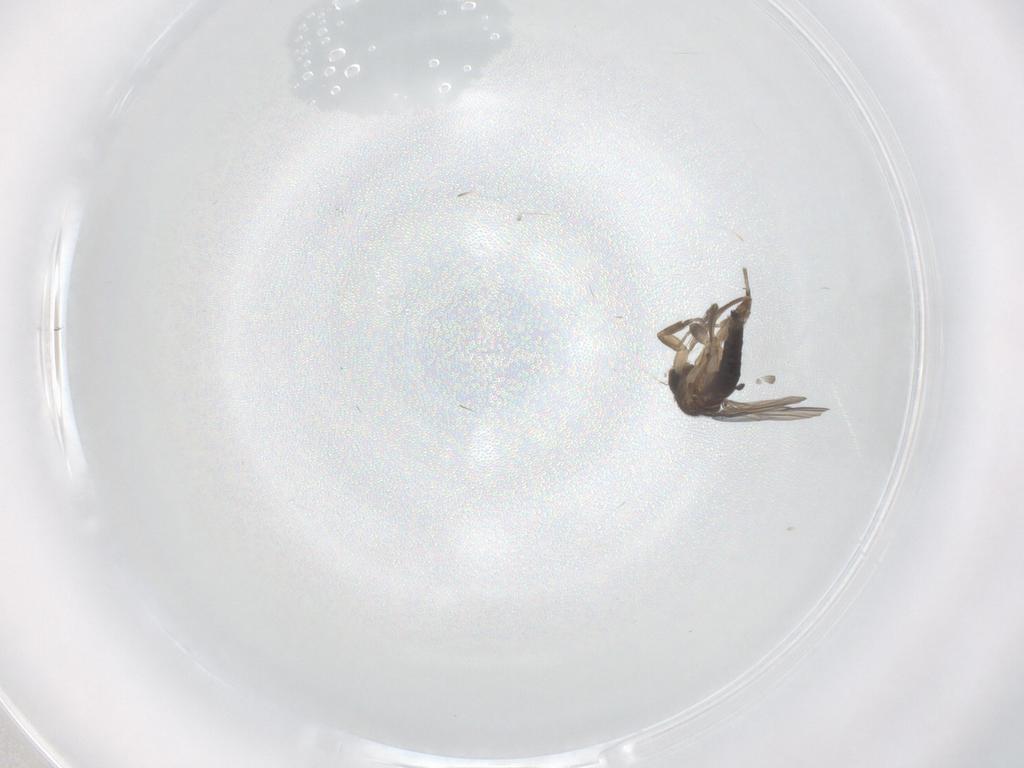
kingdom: Animalia
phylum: Arthropoda
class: Insecta
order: Diptera
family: Phoridae
